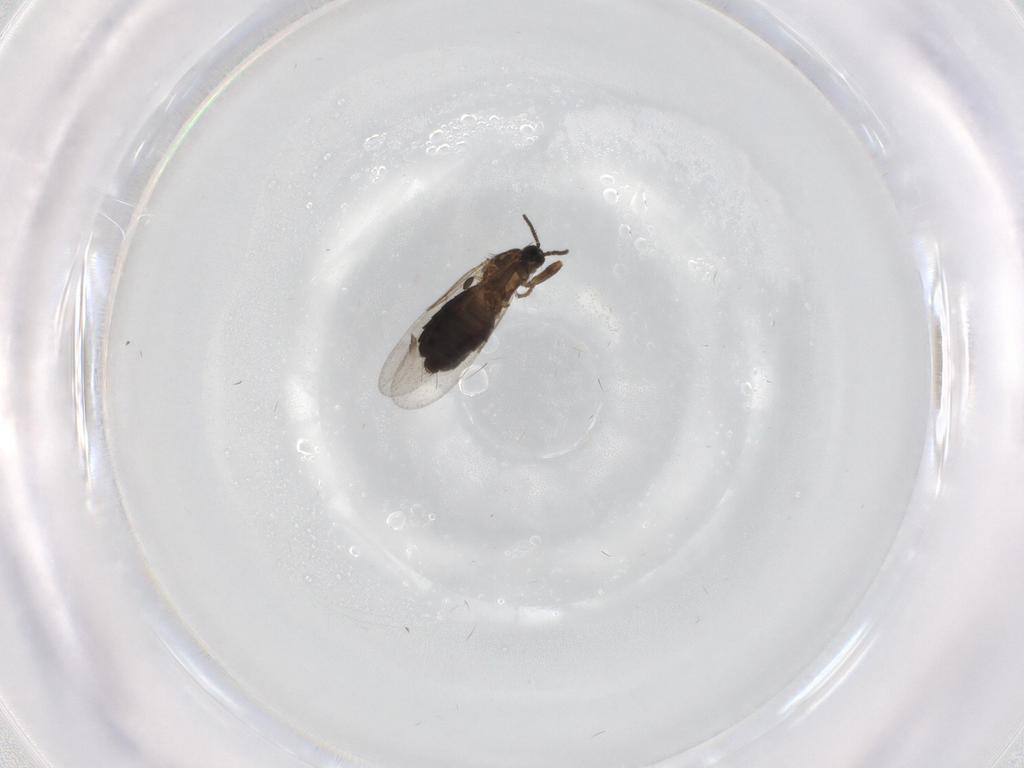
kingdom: Animalia
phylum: Arthropoda
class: Insecta
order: Diptera
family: Scatopsidae
